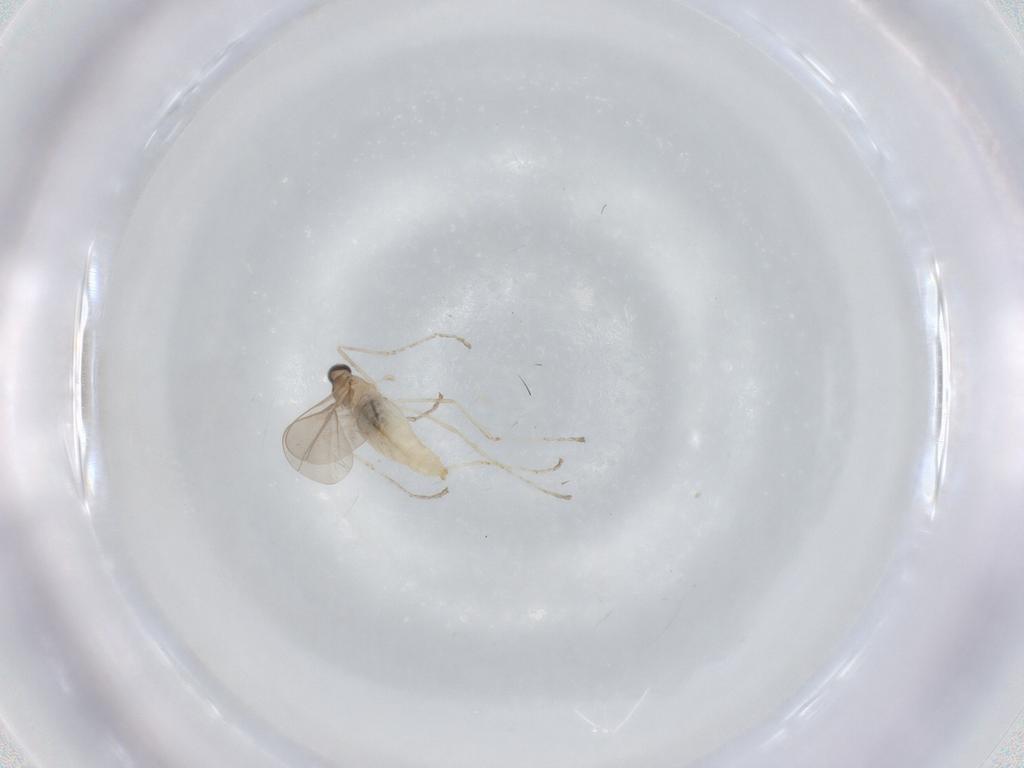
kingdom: Animalia
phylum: Arthropoda
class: Insecta
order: Diptera
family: Cecidomyiidae
